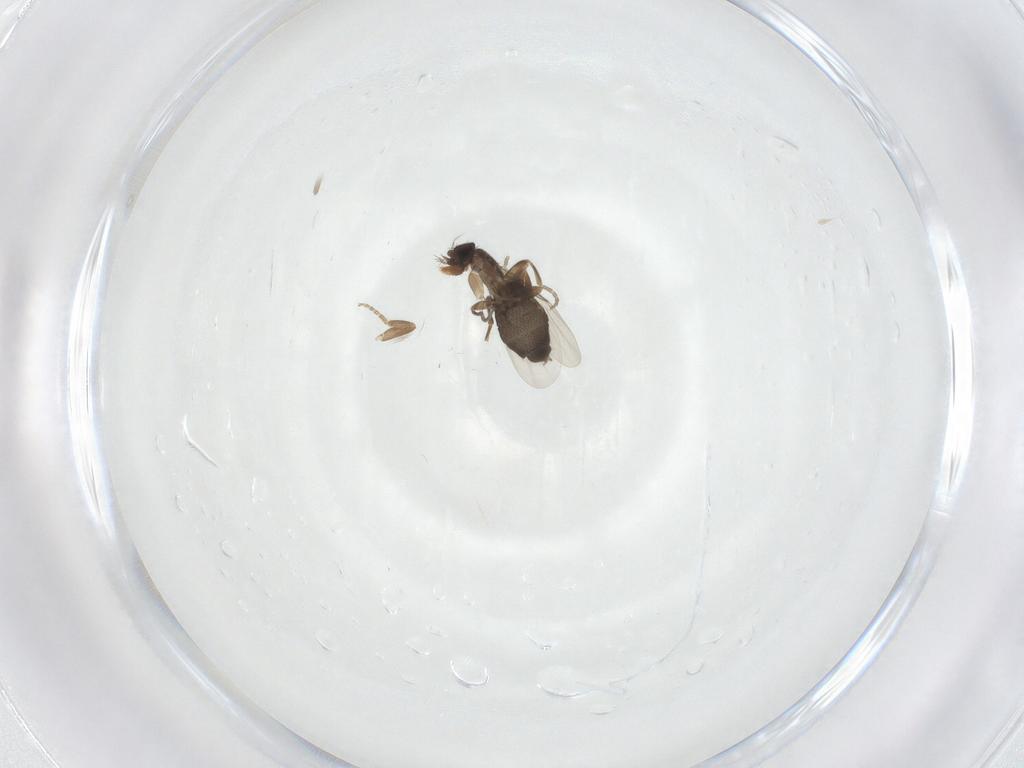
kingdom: Animalia
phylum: Arthropoda
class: Insecta
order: Diptera
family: Phoridae
